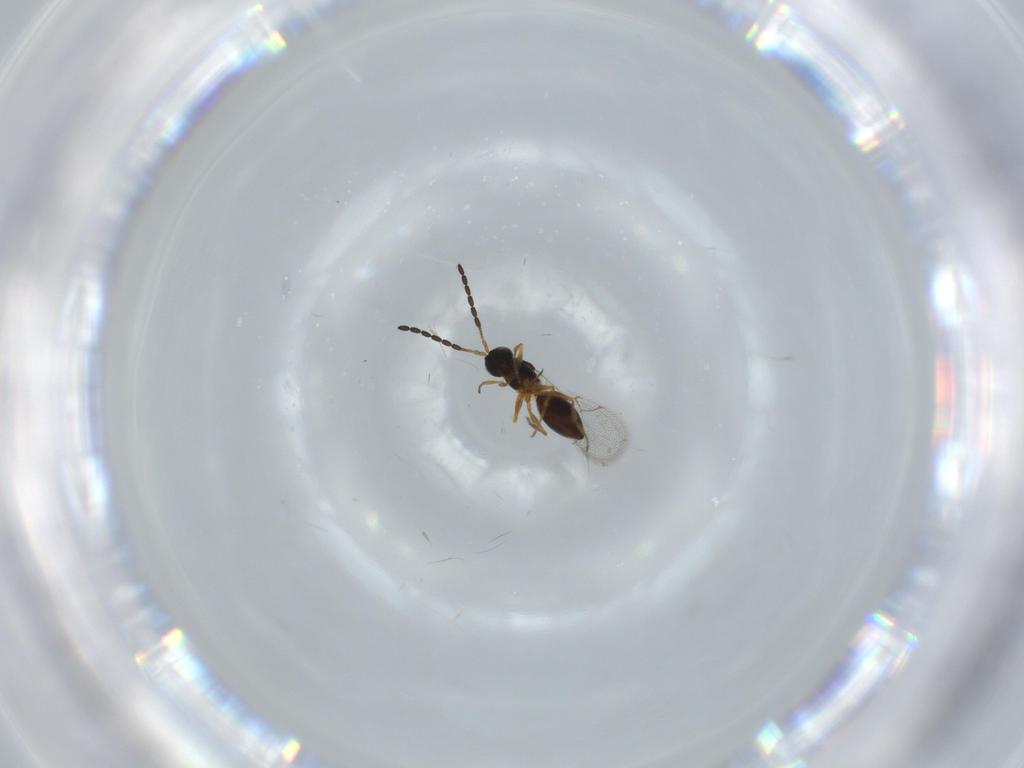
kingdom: Animalia
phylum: Arthropoda
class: Insecta
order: Hymenoptera
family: Figitidae
